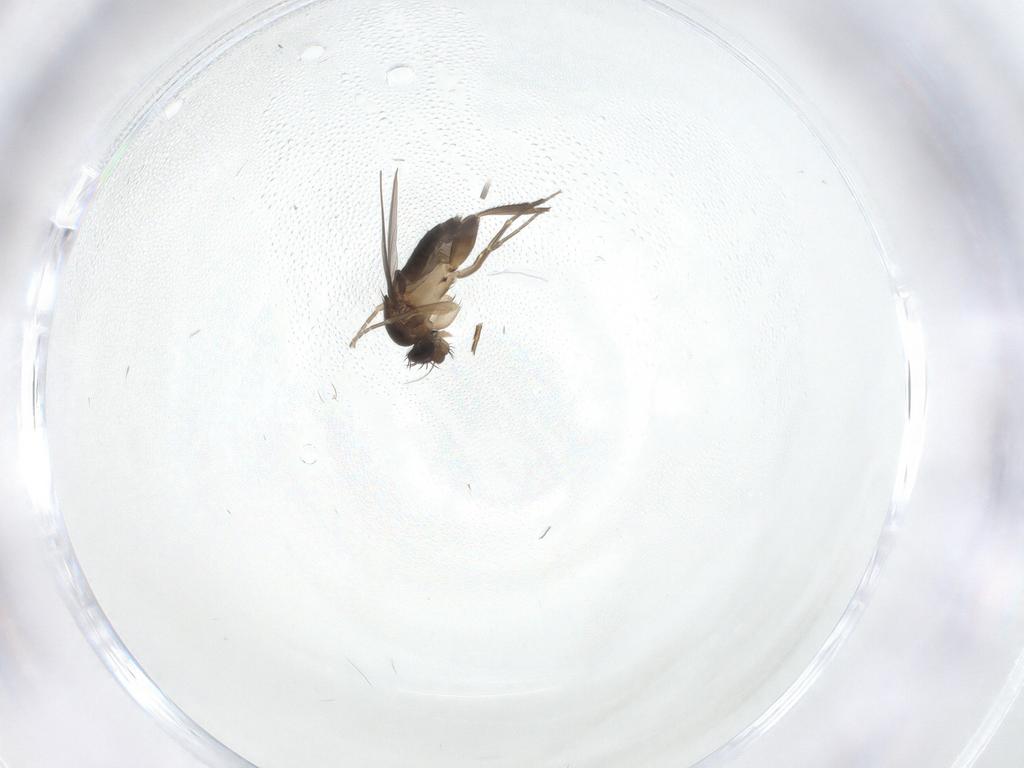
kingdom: Animalia
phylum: Arthropoda
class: Insecta
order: Diptera
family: Phoridae
